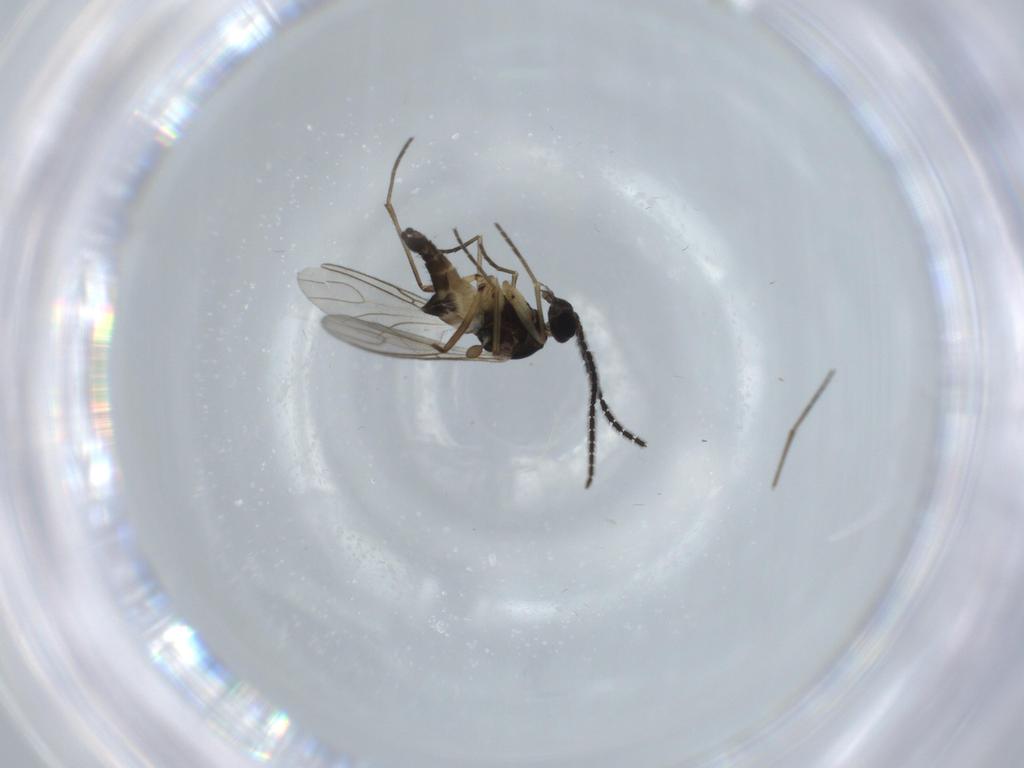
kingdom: Animalia
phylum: Arthropoda
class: Insecta
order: Diptera
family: Sciaridae
